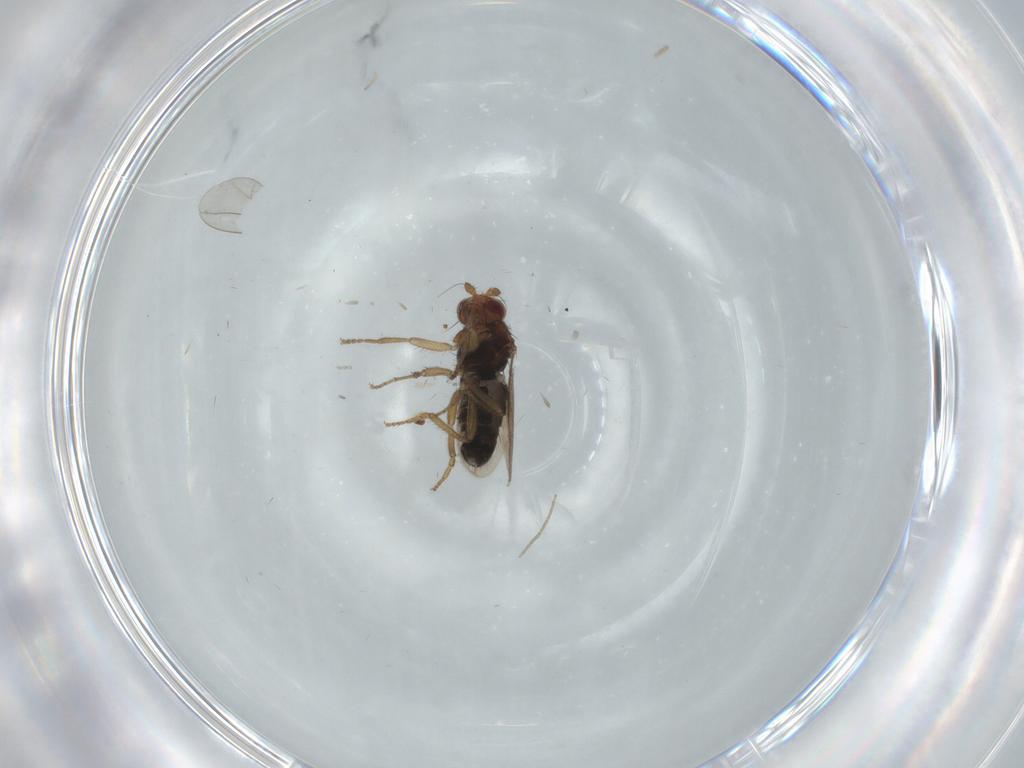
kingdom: Animalia
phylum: Arthropoda
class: Insecta
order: Diptera
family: Sphaeroceridae
